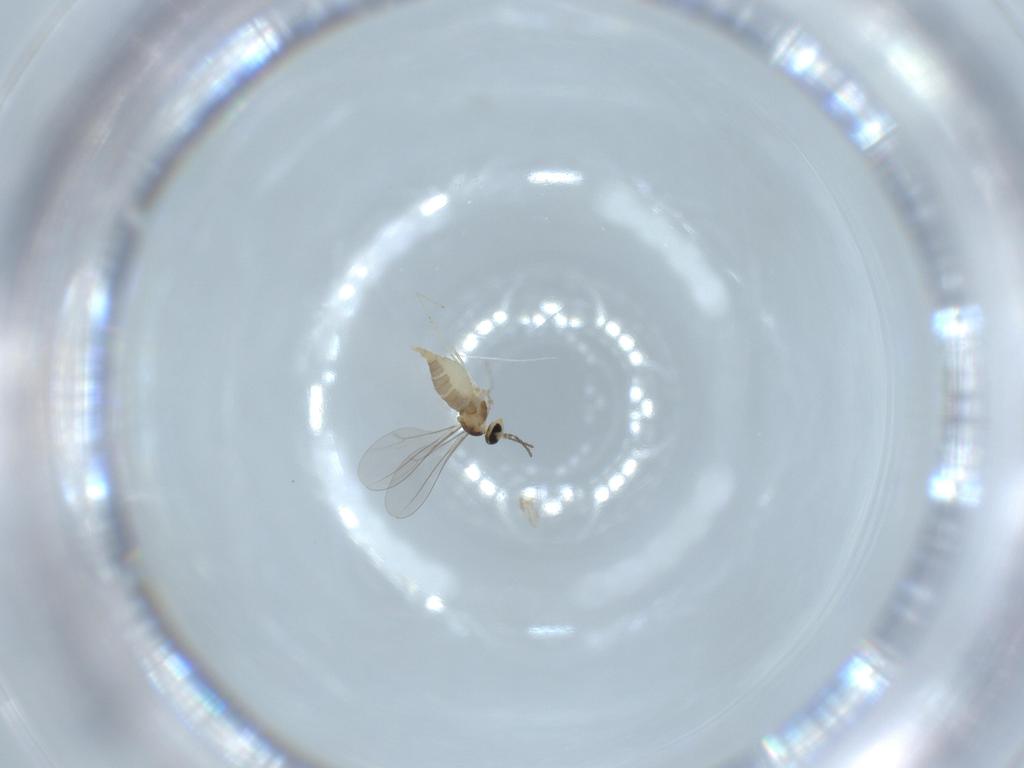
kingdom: Animalia
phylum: Arthropoda
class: Insecta
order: Diptera
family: Cecidomyiidae
